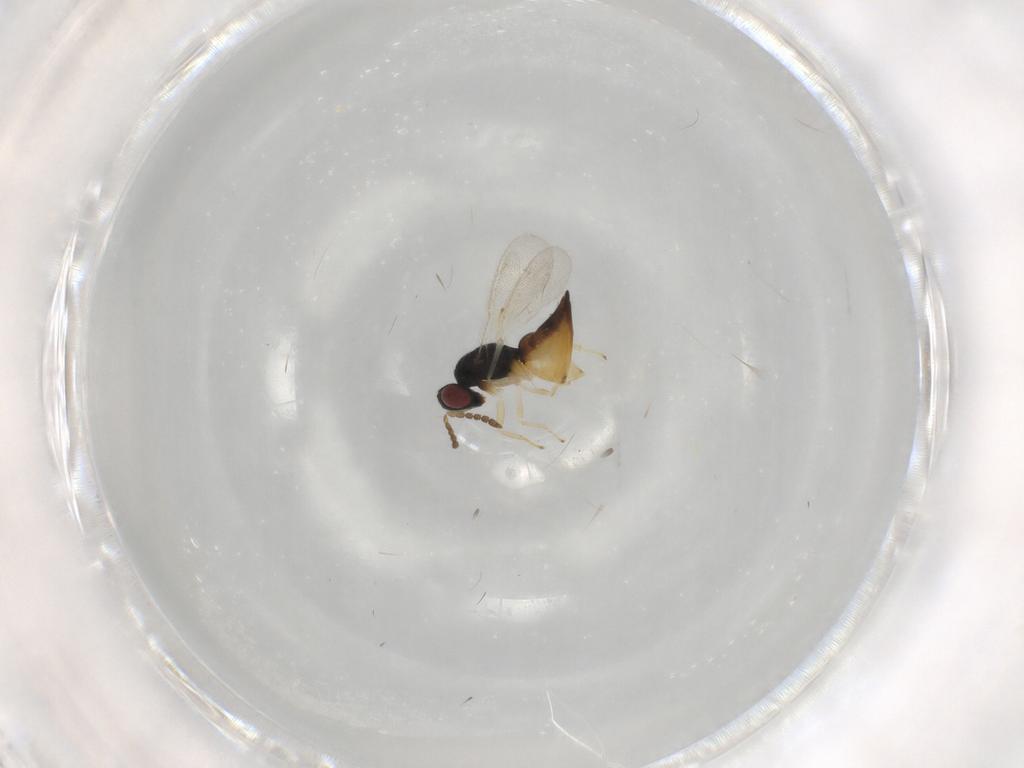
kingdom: Animalia
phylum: Arthropoda
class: Insecta
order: Hymenoptera
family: Eulophidae
